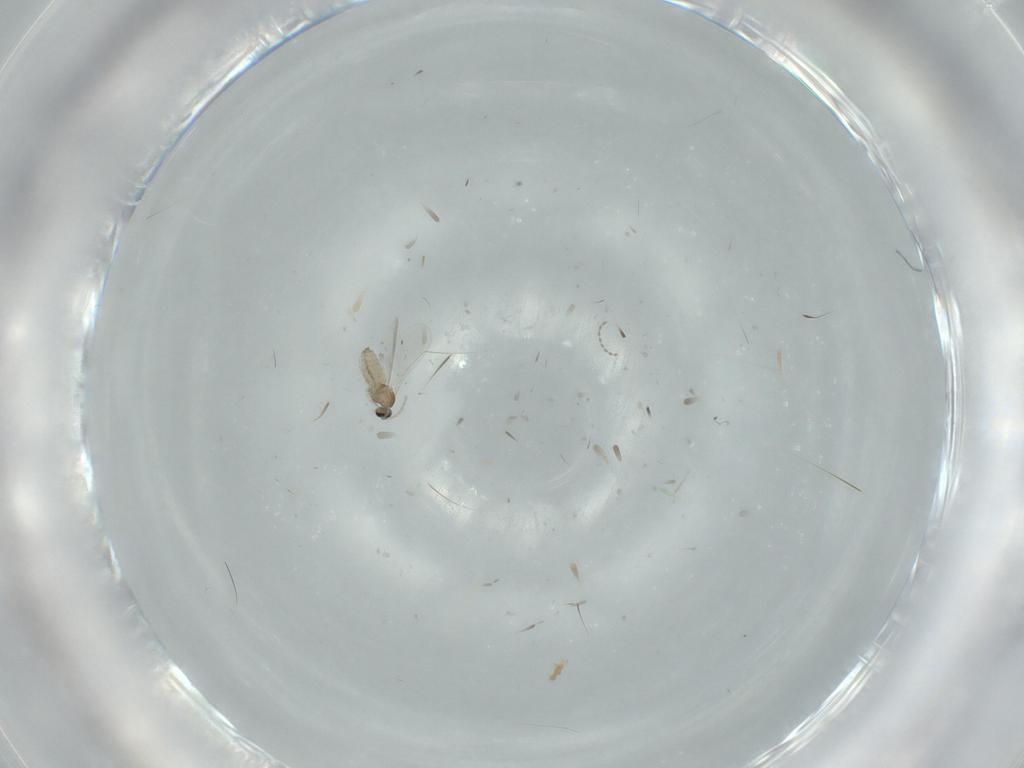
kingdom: Animalia
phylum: Arthropoda
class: Insecta
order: Diptera
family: Cecidomyiidae
